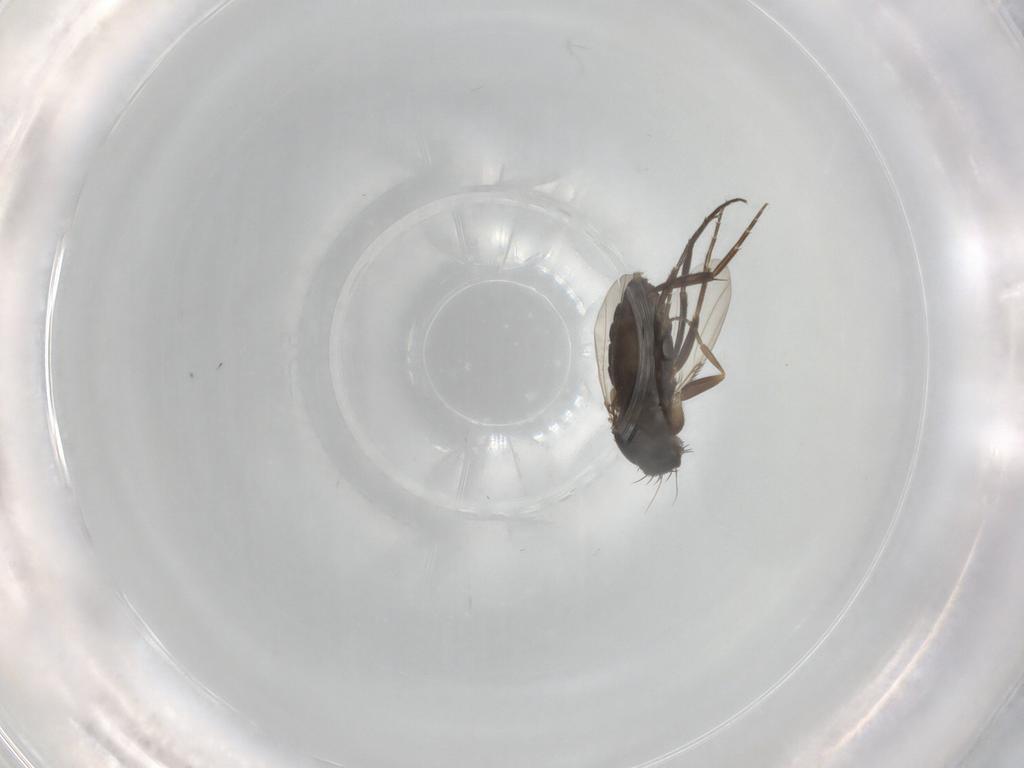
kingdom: Animalia
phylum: Arthropoda
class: Insecta
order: Diptera
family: Phoridae
